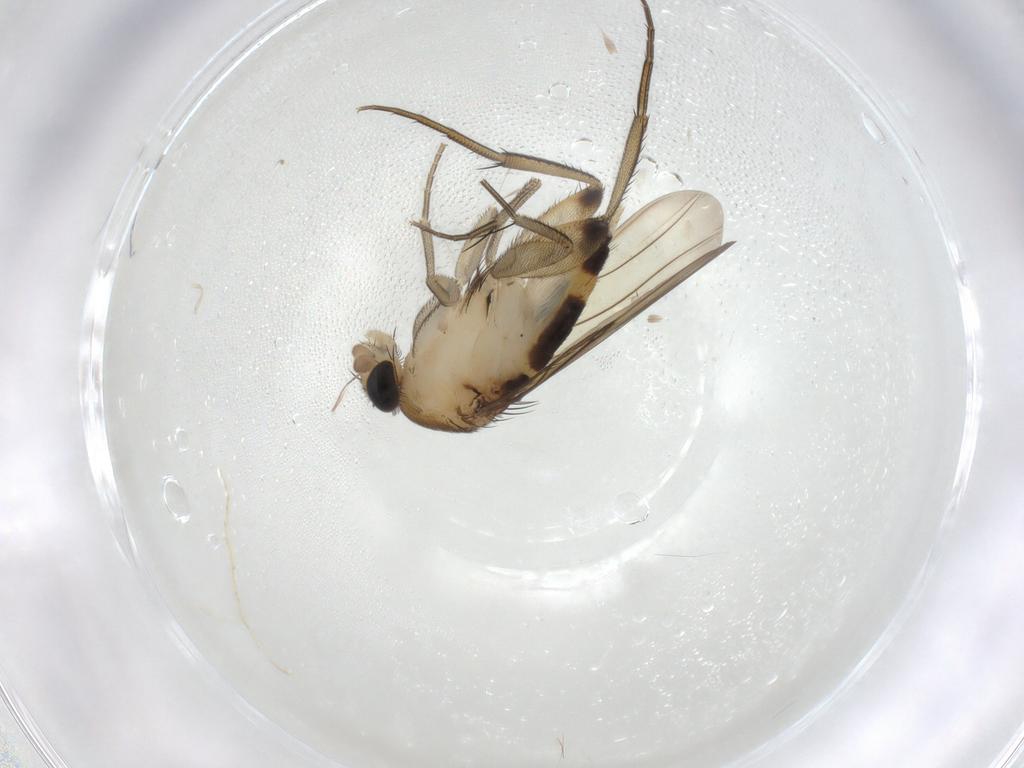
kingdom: Animalia
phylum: Arthropoda
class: Insecta
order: Diptera
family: Phoridae
